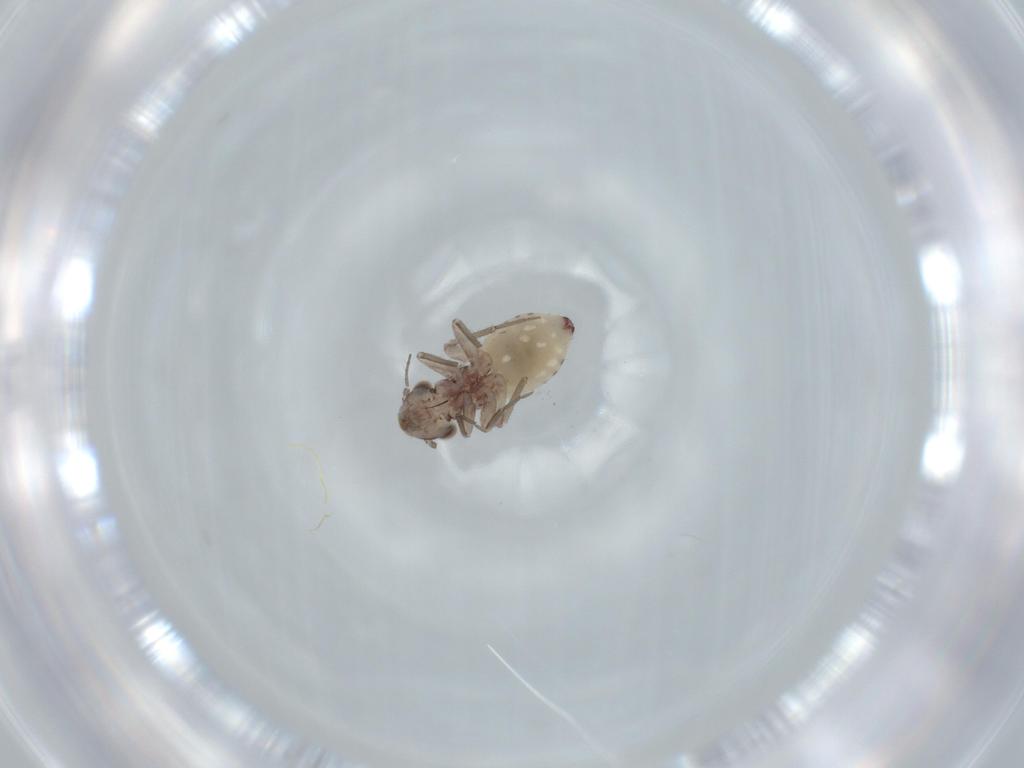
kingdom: Animalia
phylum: Arthropoda
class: Insecta
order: Psocodea
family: Lepidopsocidae
